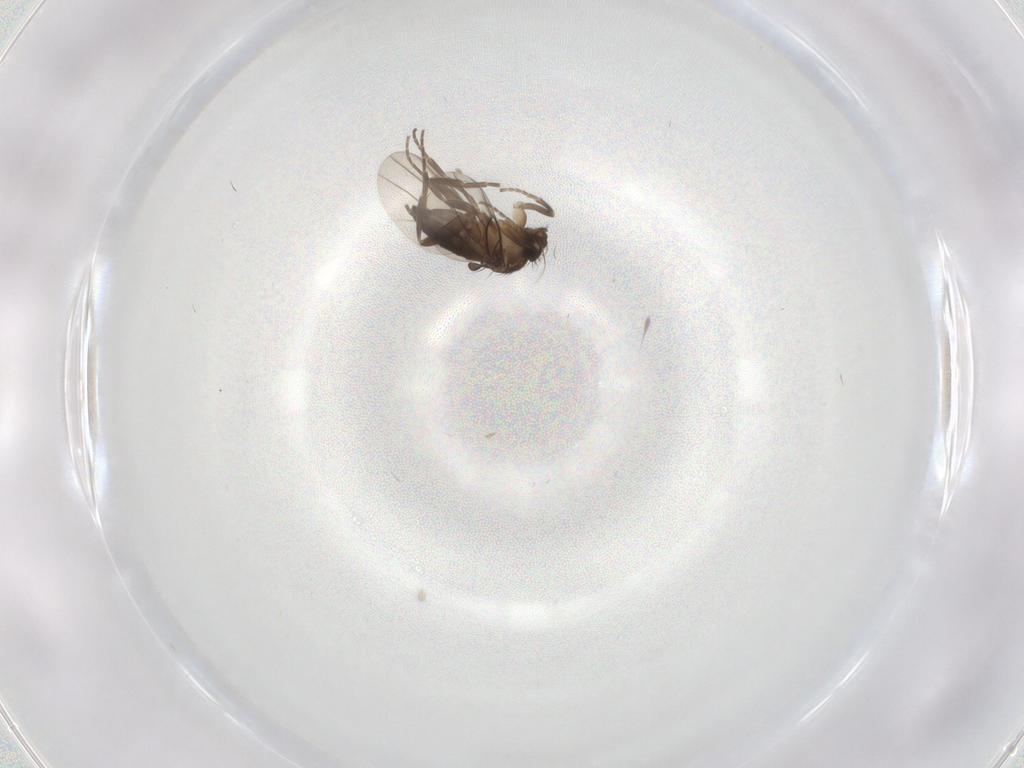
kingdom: Animalia
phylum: Arthropoda
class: Insecta
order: Diptera
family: Phoridae
